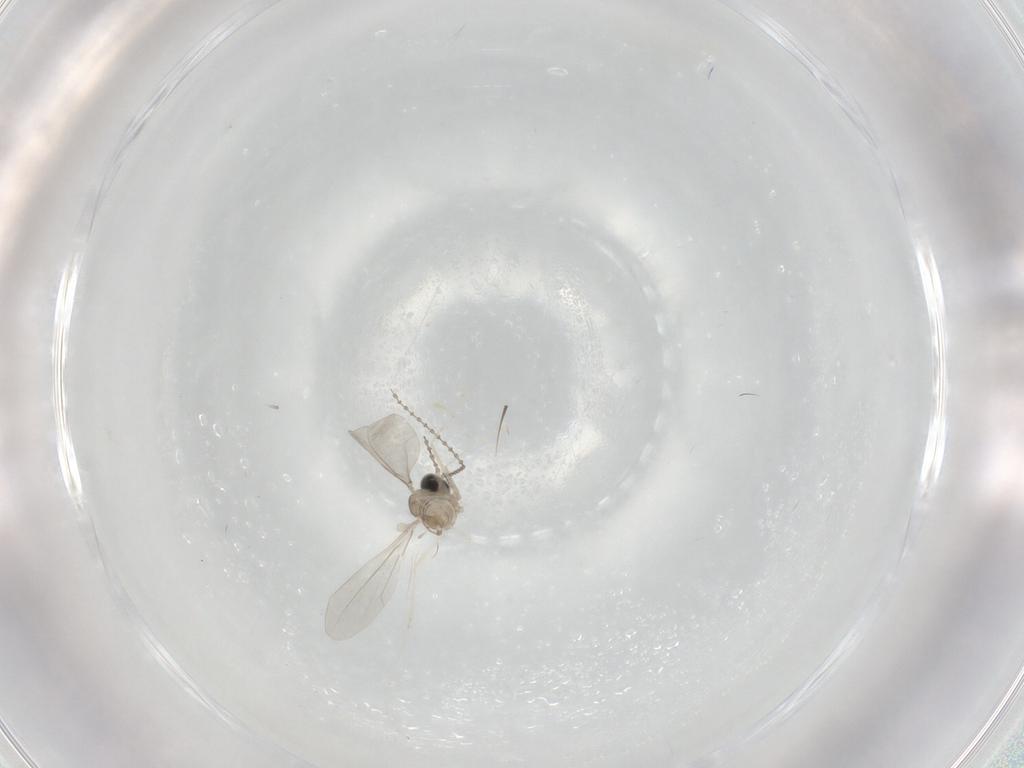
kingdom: Animalia
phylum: Arthropoda
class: Insecta
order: Diptera
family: Cecidomyiidae
